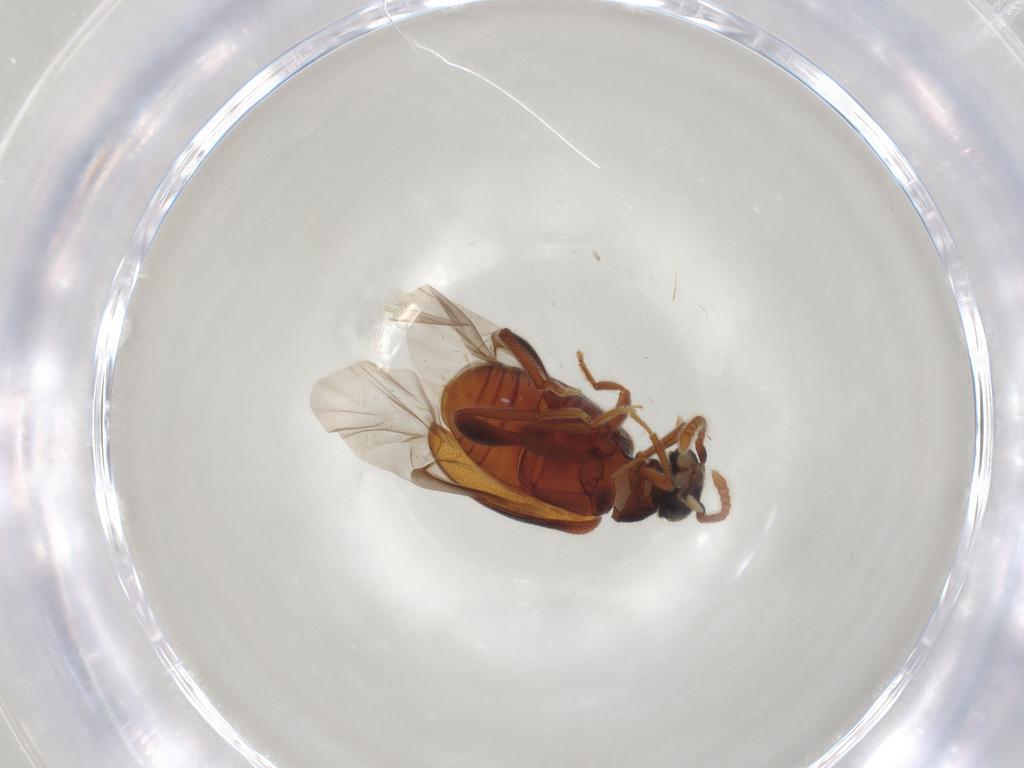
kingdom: Animalia
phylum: Arthropoda
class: Insecta
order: Coleoptera
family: Aderidae
